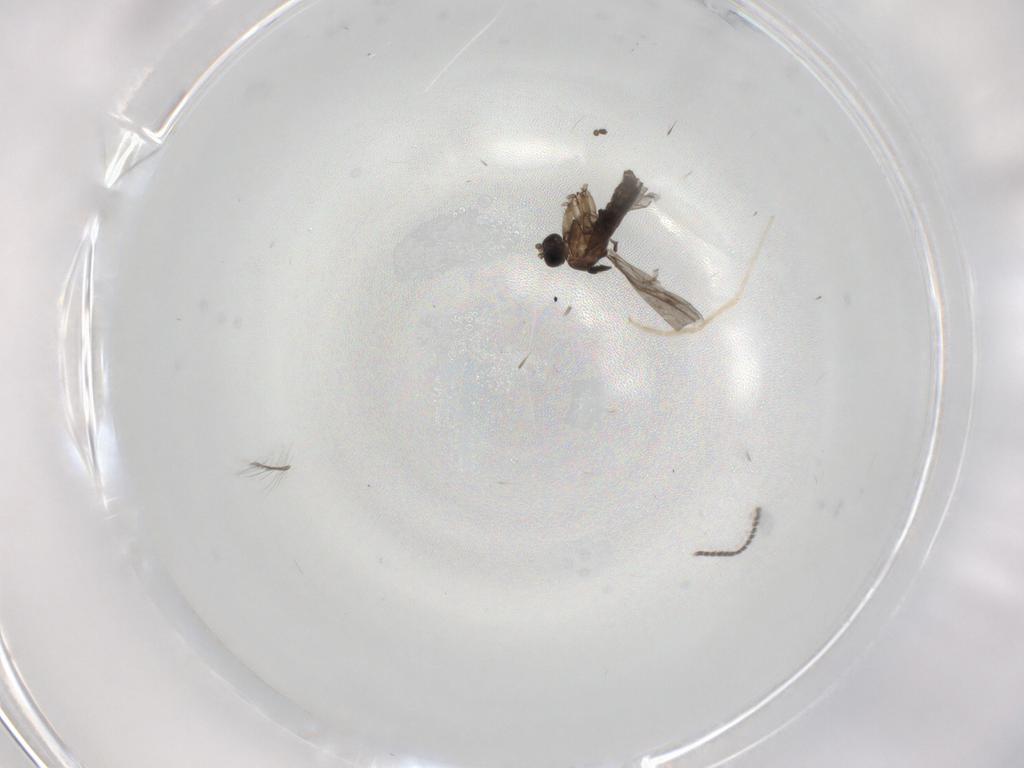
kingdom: Animalia
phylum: Arthropoda
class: Insecta
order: Diptera
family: Sciaridae
